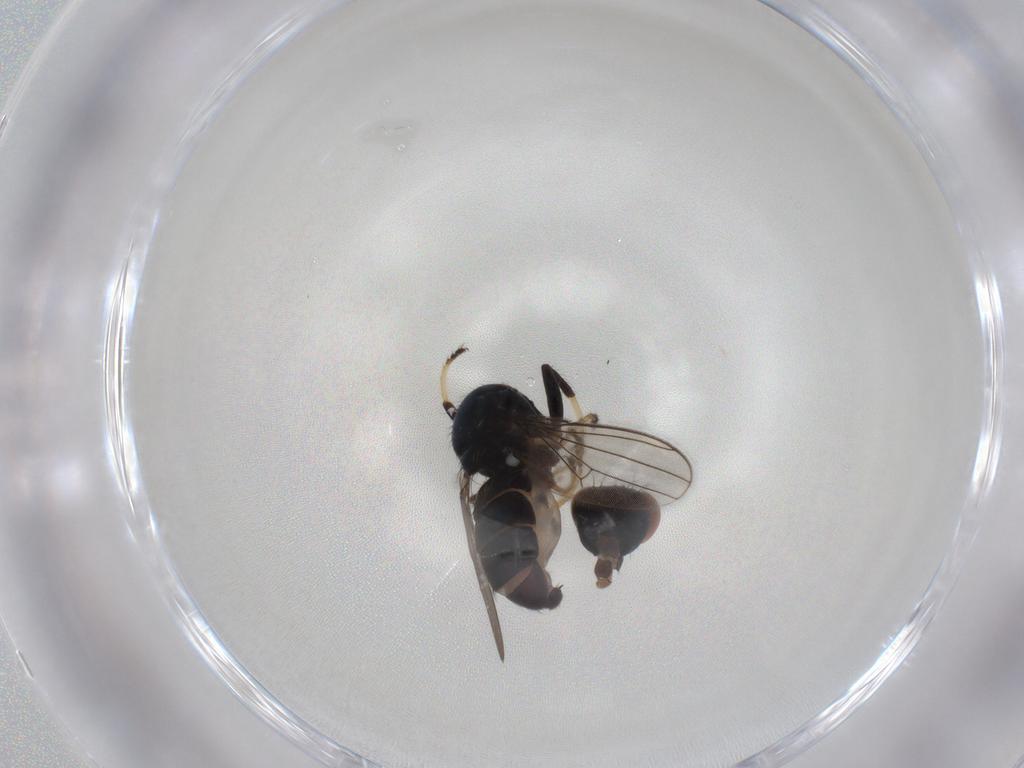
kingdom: Animalia
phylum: Arthropoda
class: Insecta
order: Diptera
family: Ephydridae
